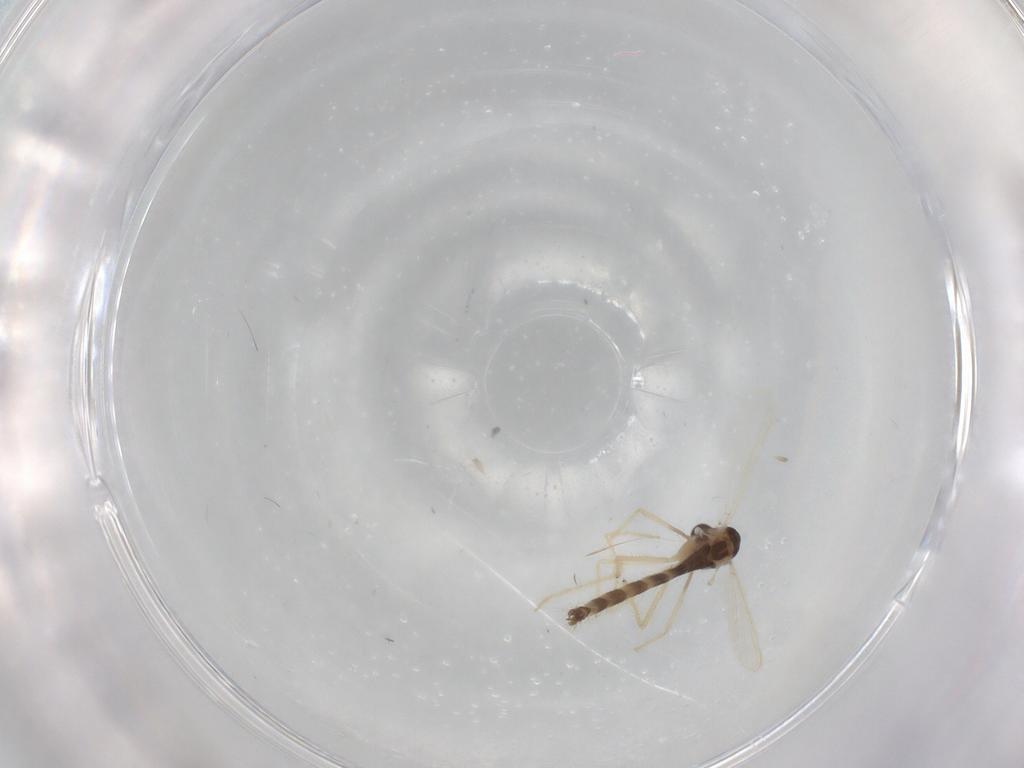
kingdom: Animalia
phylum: Arthropoda
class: Insecta
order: Diptera
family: Chironomidae
